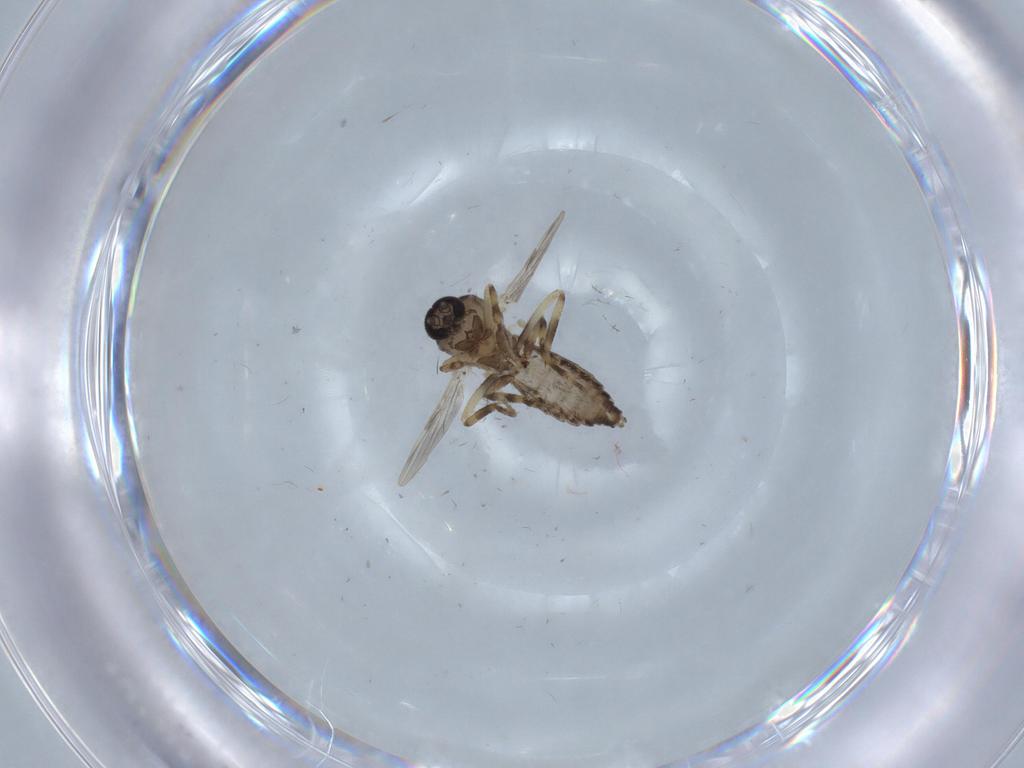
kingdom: Animalia
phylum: Arthropoda
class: Insecta
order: Diptera
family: Ceratopogonidae
